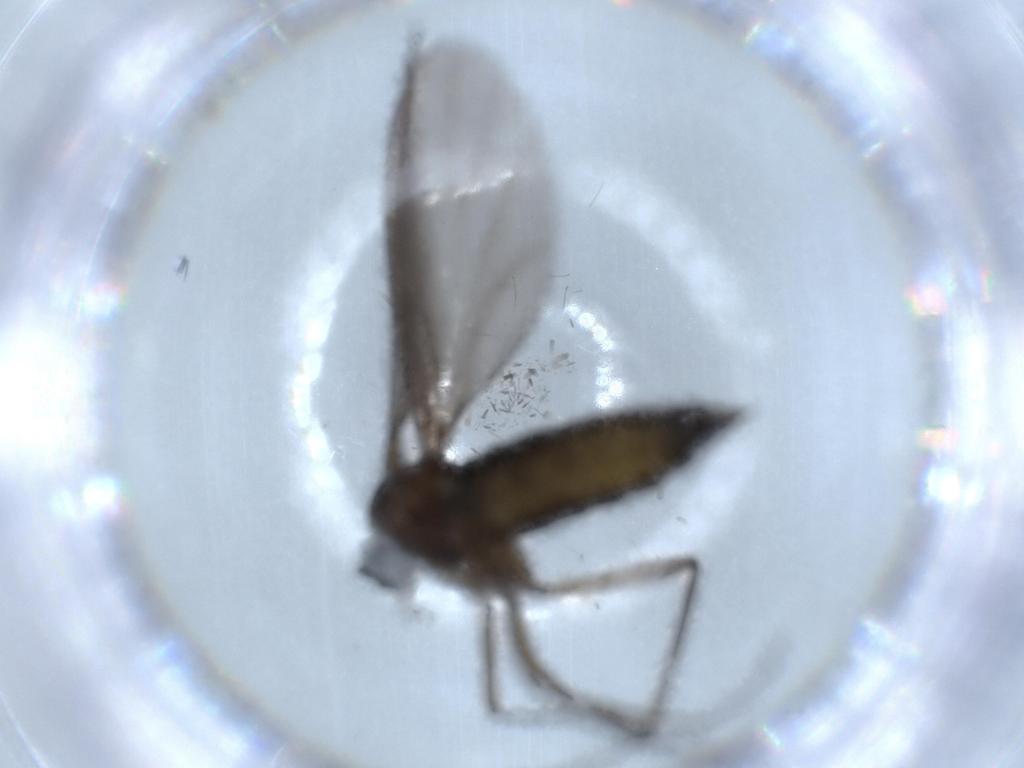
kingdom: Animalia
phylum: Arthropoda
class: Insecta
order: Diptera
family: Sciaridae
